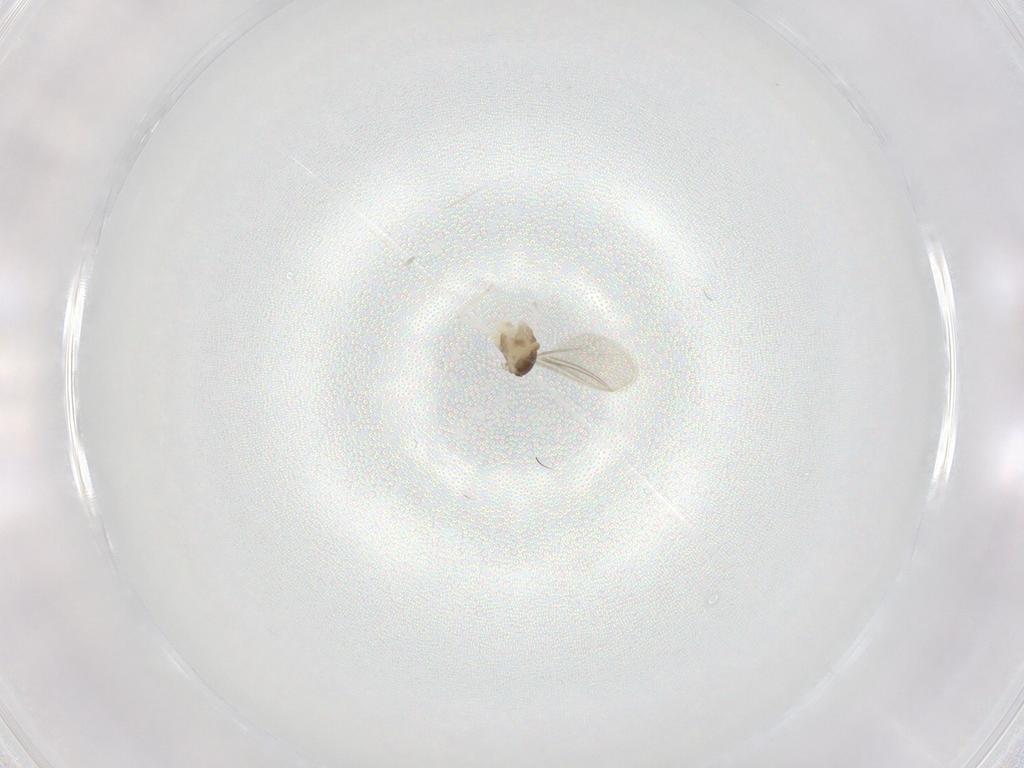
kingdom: Animalia
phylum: Arthropoda
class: Insecta
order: Diptera
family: Cecidomyiidae
